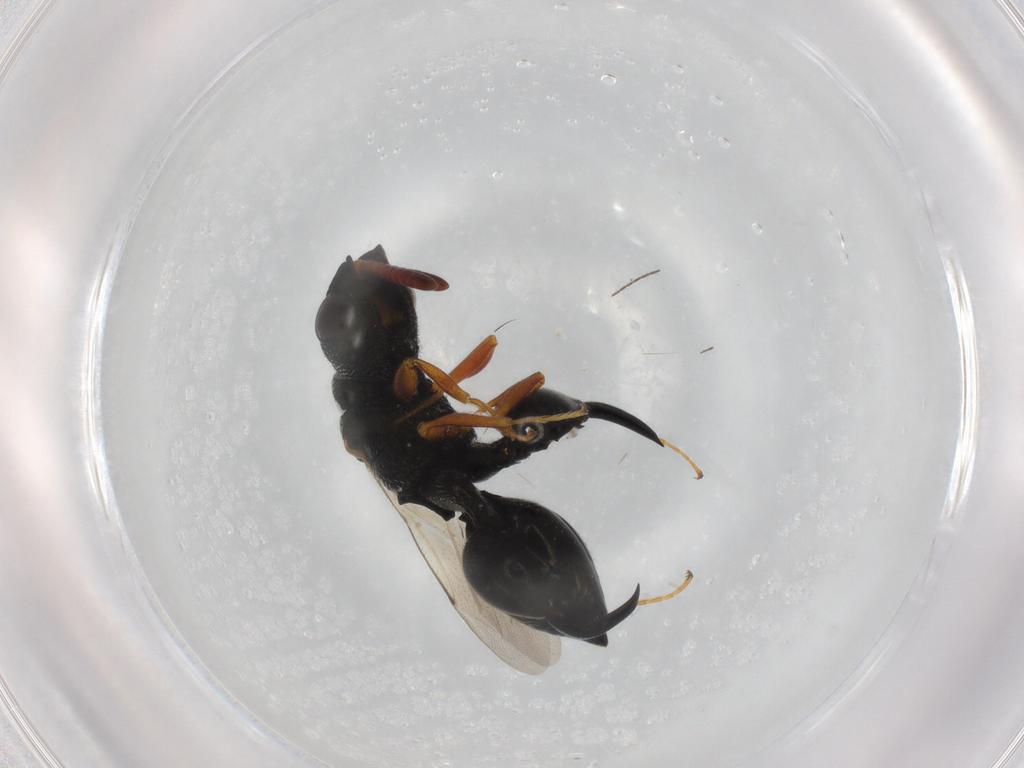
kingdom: Animalia
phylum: Arthropoda
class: Insecta
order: Hymenoptera
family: Chalcididae
